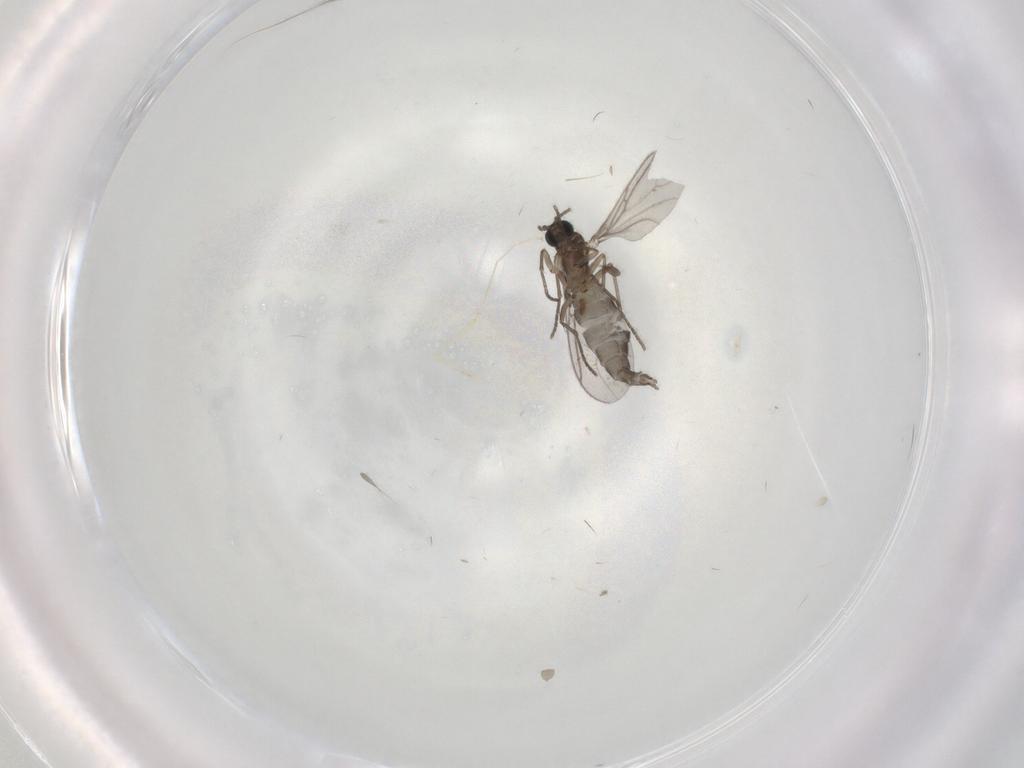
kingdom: Animalia
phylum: Arthropoda
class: Insecta
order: Diptera
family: Sciaridae
